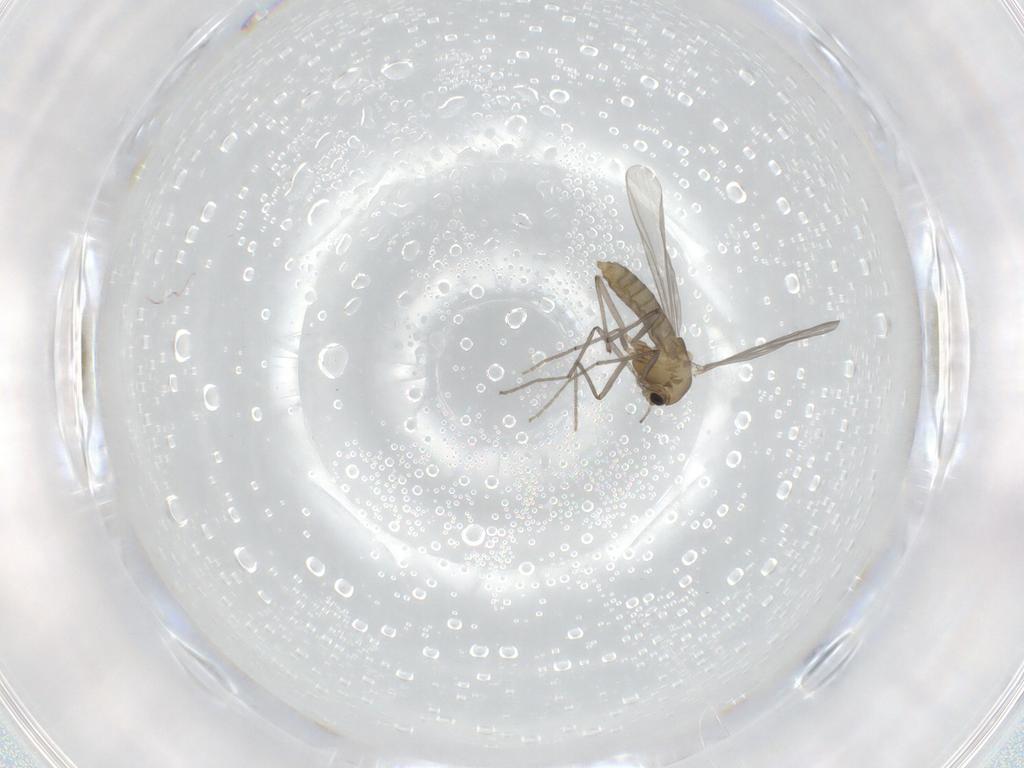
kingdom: Animalia
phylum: Arthropoda
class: Insecta
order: Diptera
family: Chironomidae
